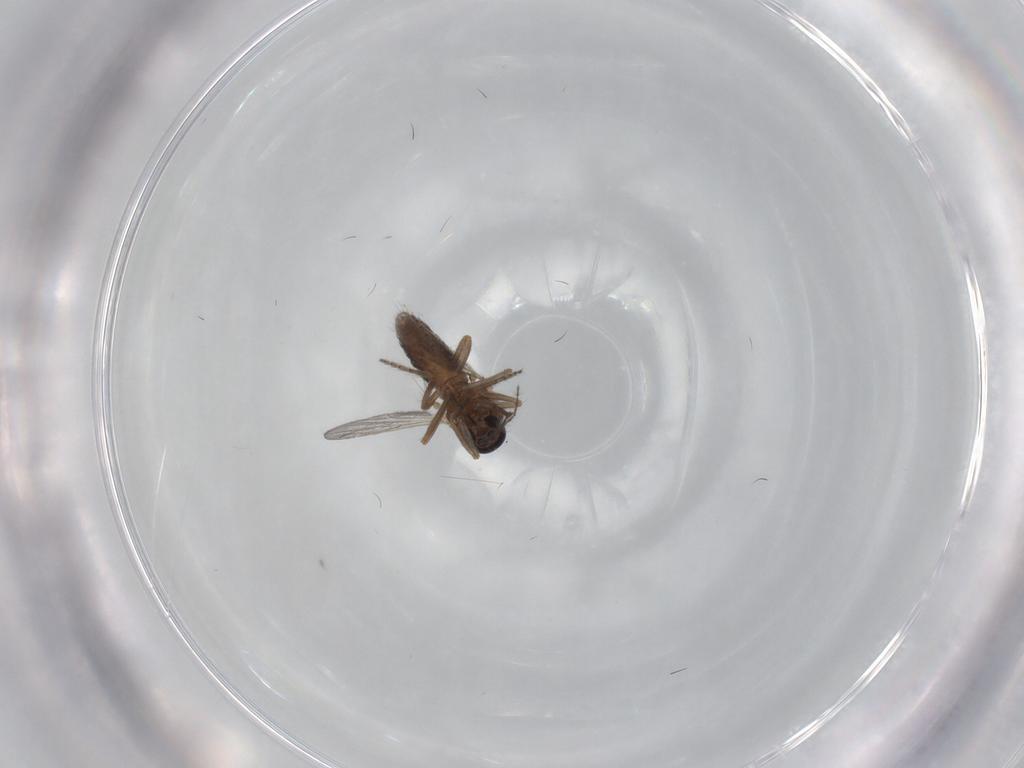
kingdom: Animalia
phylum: Arthropoda
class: Insecta
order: Diptera
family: Ceratopogonidae
